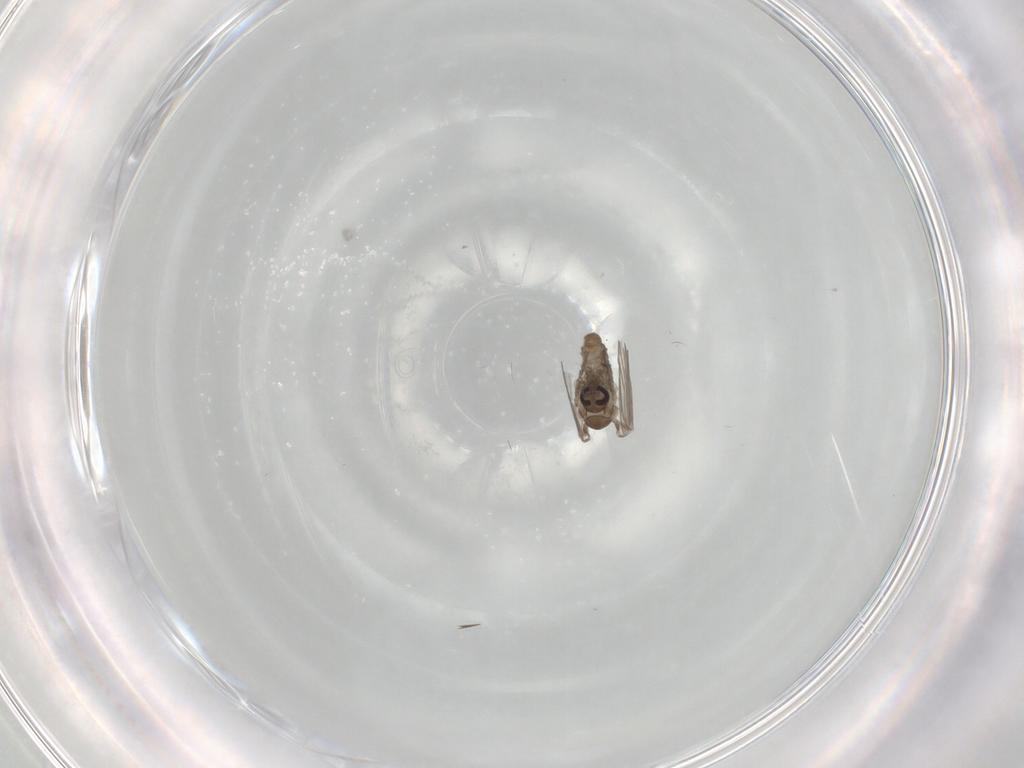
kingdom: Animalia
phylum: Arthropoda
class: Insecta
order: Diptera
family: Psychodidae
